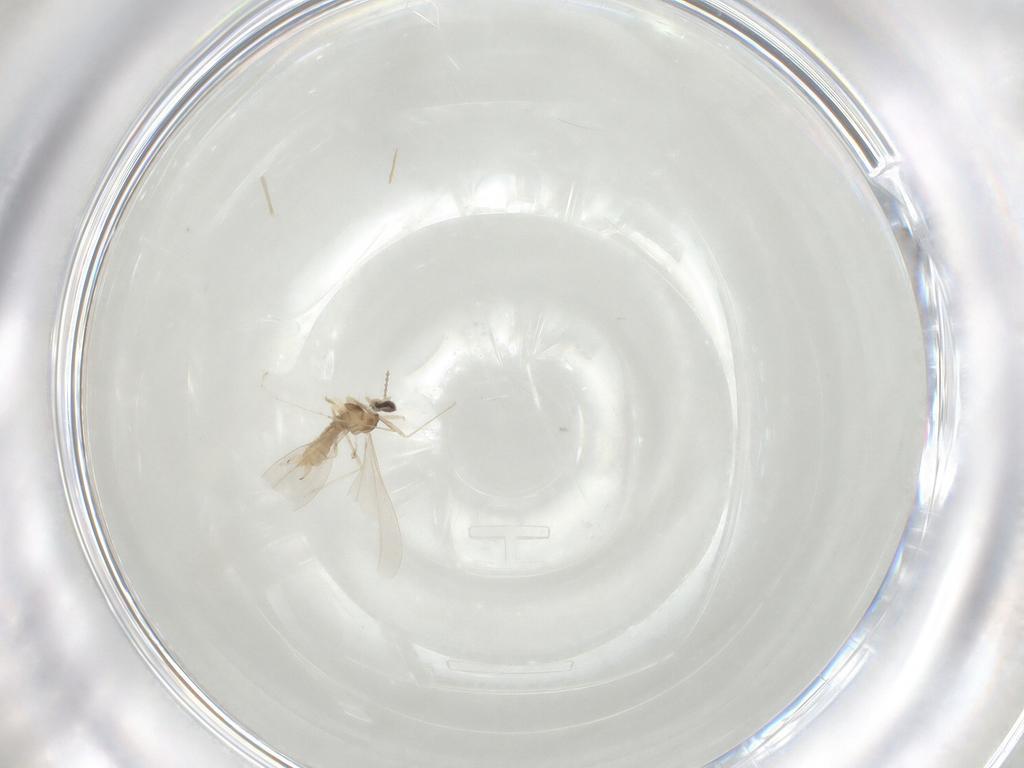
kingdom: Animalia
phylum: Arthropoda
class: Insecta
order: Diptera
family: Cecidomyiidae
